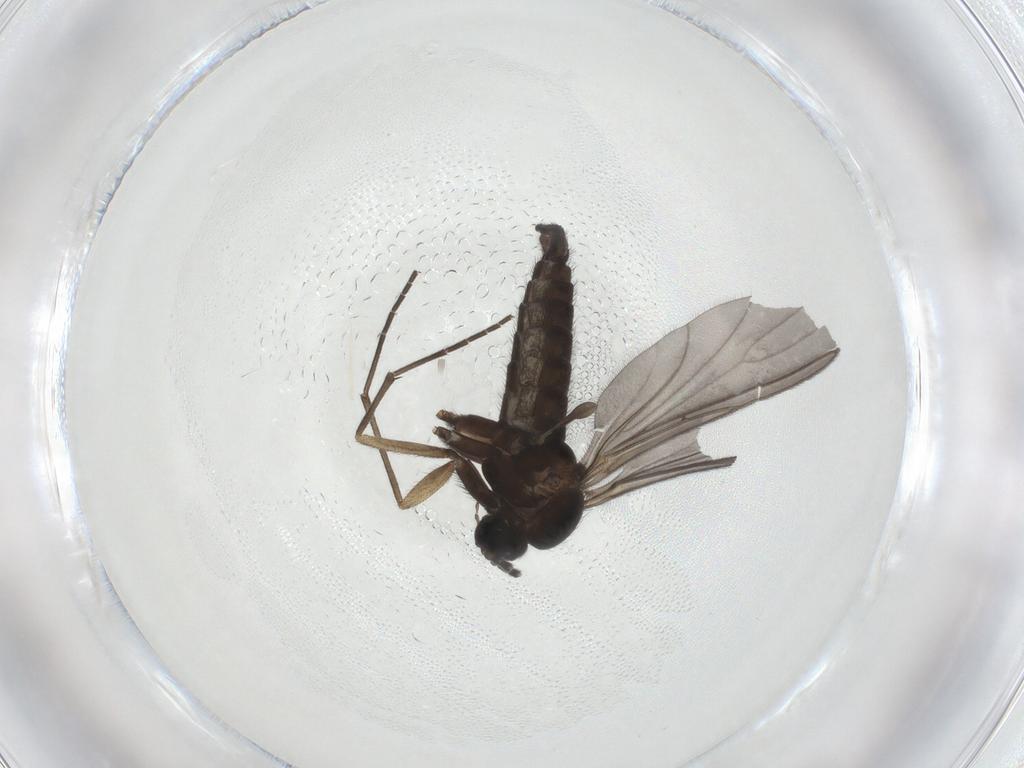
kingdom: Animalia
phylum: Arthropoda
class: Insecta
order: Diptera
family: Sciaridae
